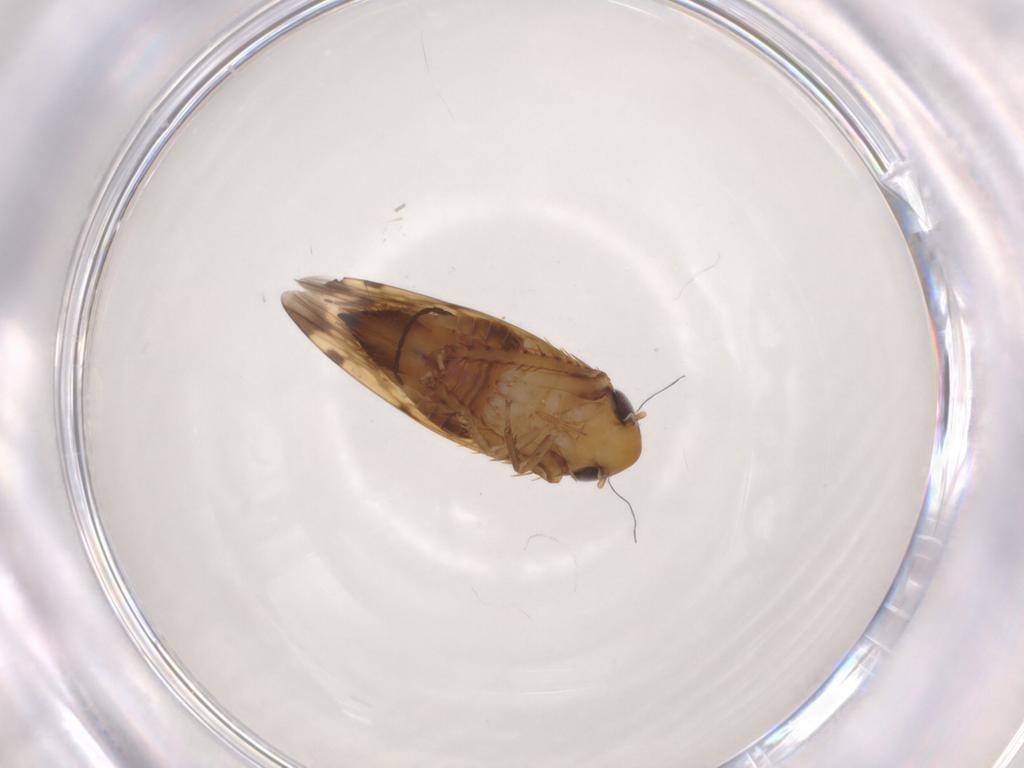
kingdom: Animalia
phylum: Arthropoda
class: Insecta
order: Hemiptera
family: Cicadellidae
